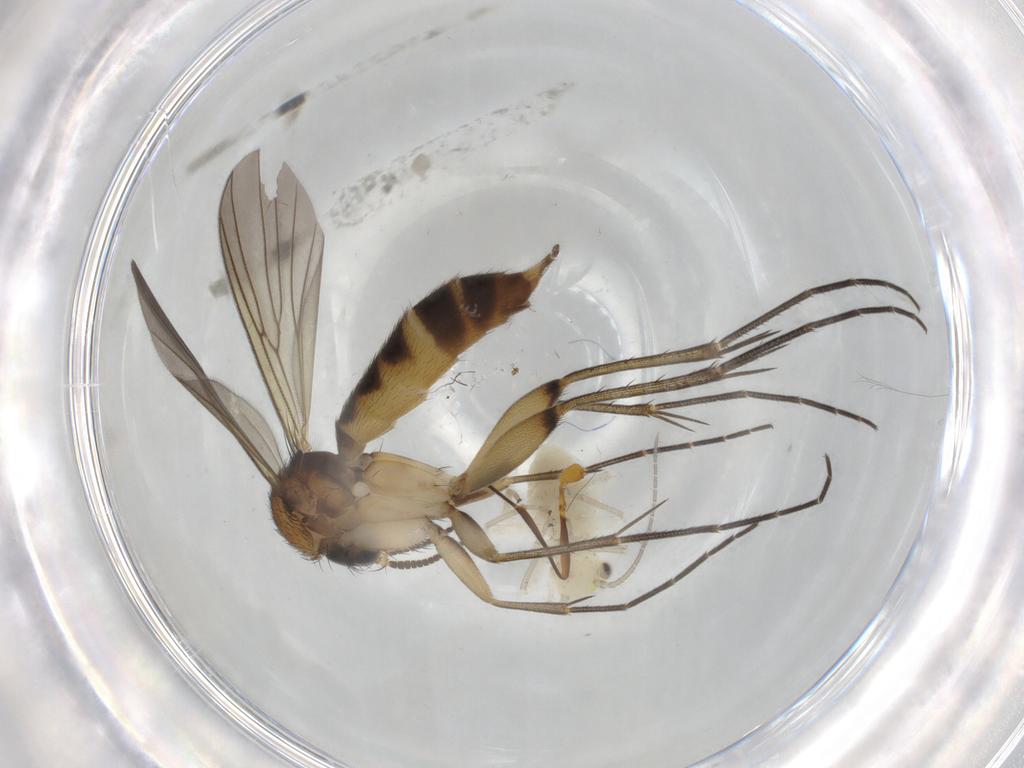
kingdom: Animalia
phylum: Arthropoda
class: Insecta
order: Diptera
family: Mycetophilidae
